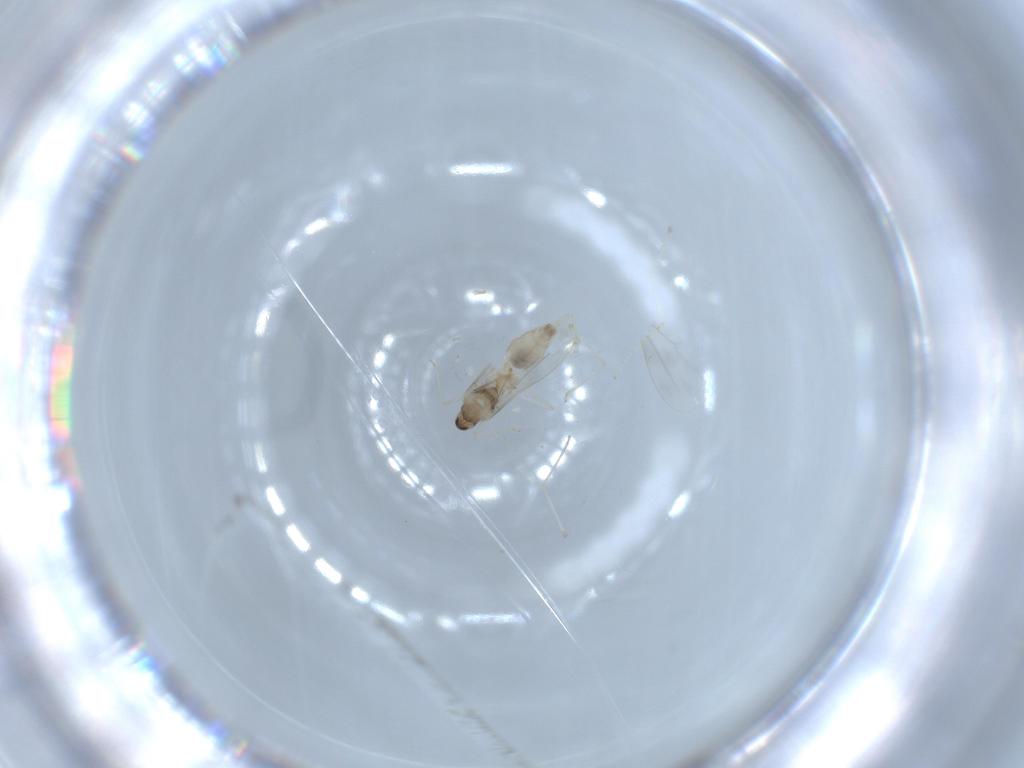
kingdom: Animalia
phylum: Arthropoda
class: Insecta
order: Diptera
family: Cecidomyiidae
